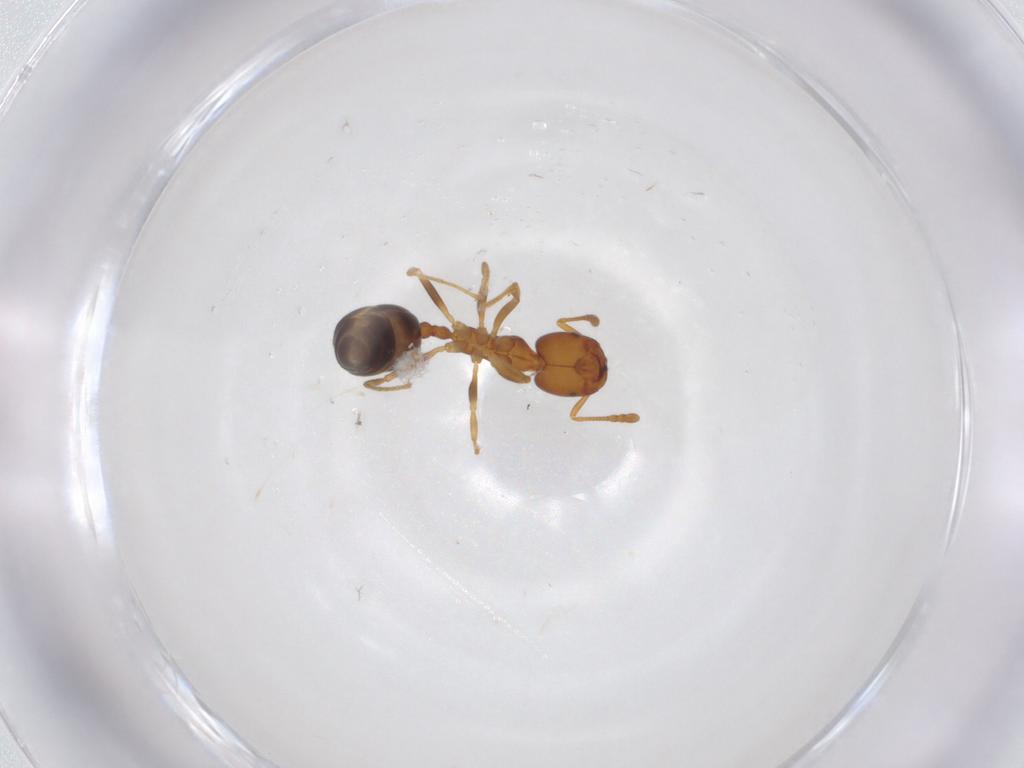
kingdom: Animalia
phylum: Arthropoda
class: Insecta
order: Hymenoptera
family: Formicidae
